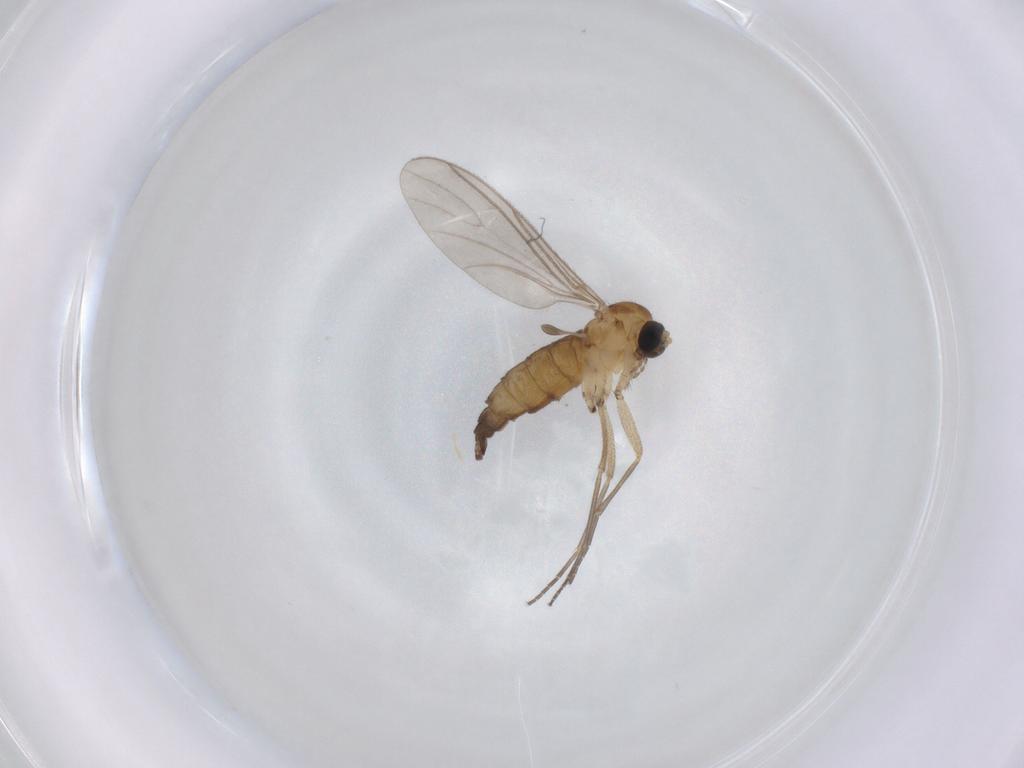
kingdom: Animalia
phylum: Arthropoda
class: Insecta
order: Diptera
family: Sciaridae
